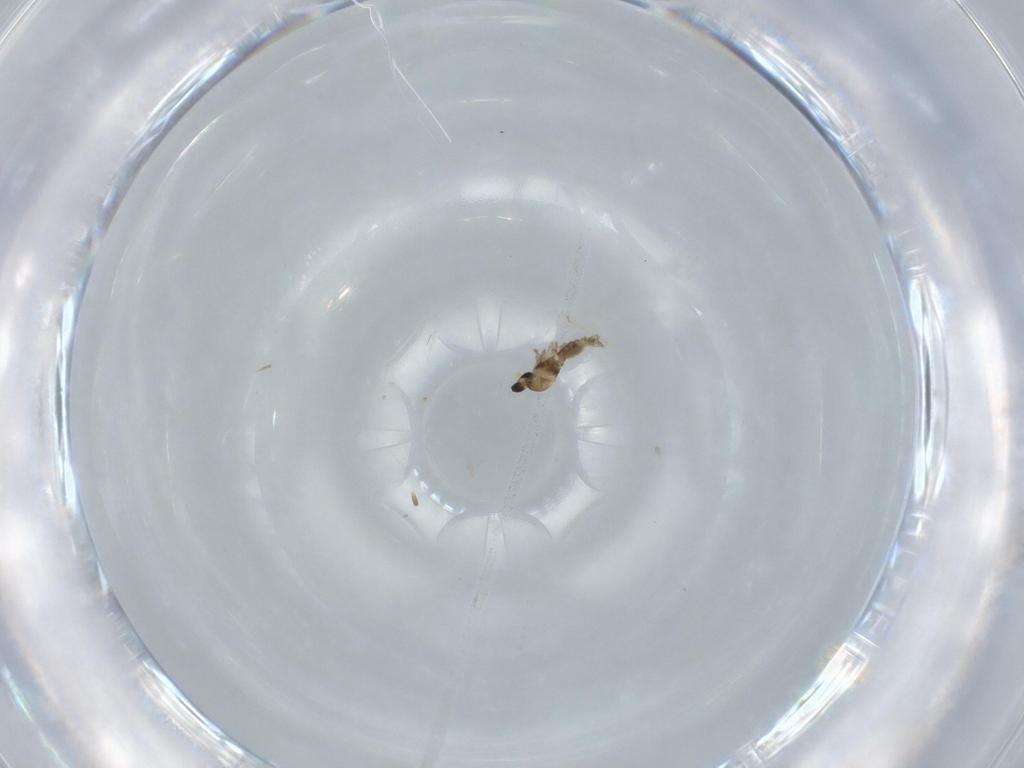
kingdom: Animalia
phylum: Arthropoda
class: Insecta
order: Diptera
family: Cecidomyiidae
